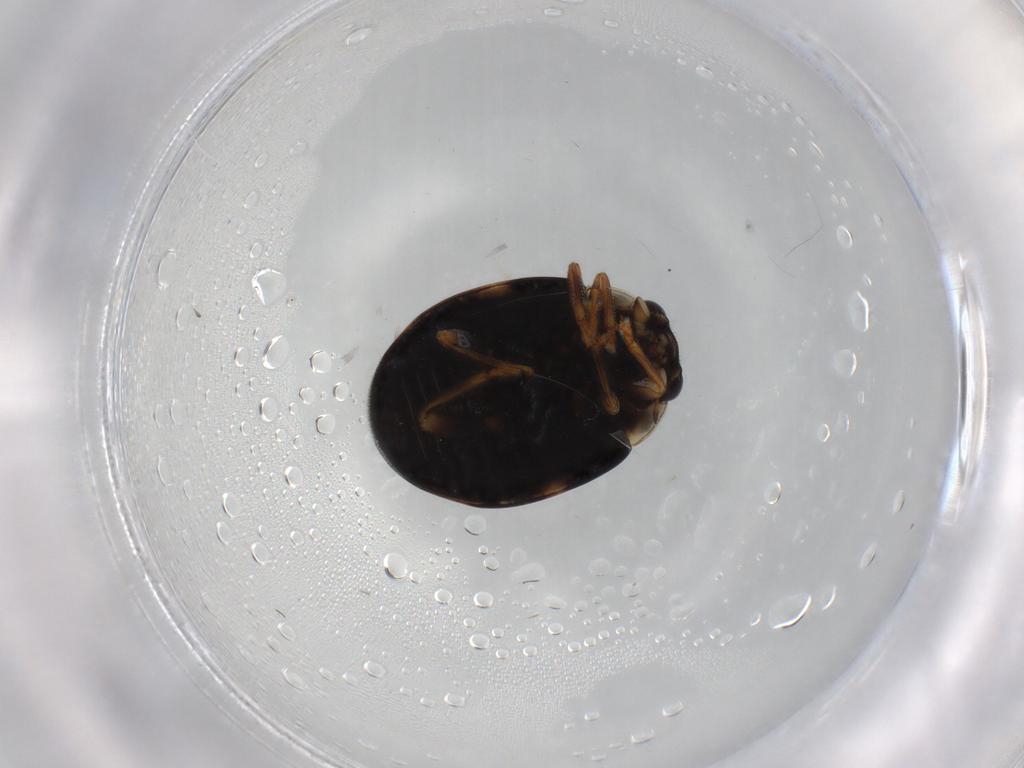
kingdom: Animalia
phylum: Arthropoda
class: Insecta
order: Coleoptera
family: Coccinellidae
